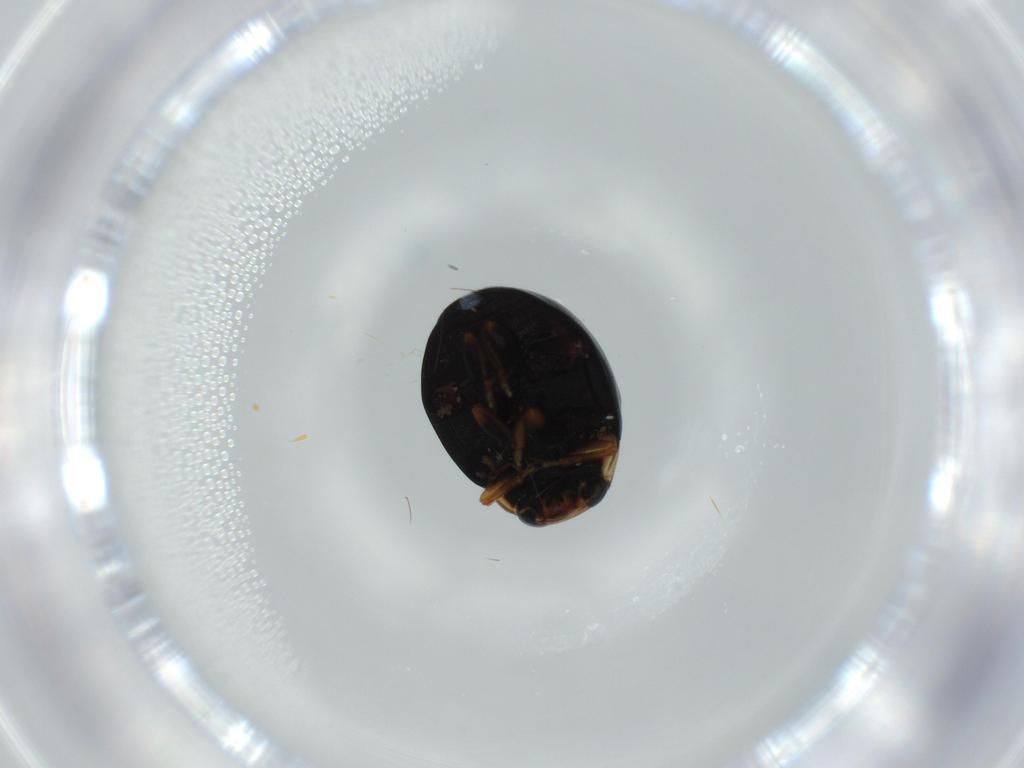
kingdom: Animalia
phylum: Arthropoda
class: Insecta
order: Coleoptera
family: Coccinellidae
